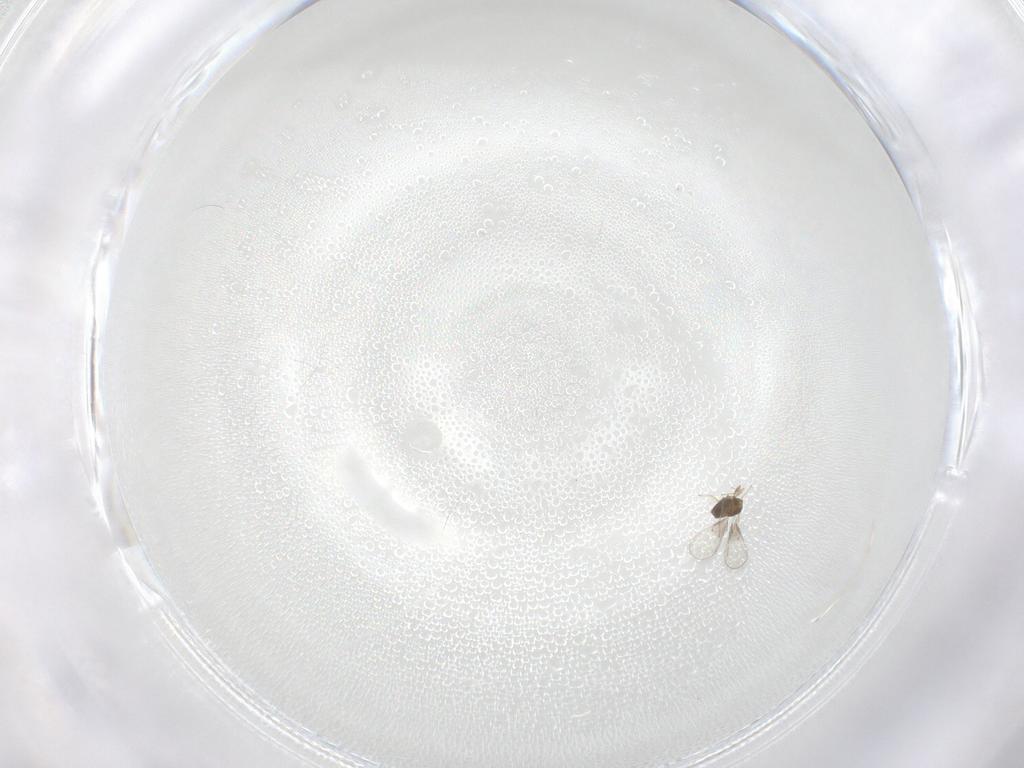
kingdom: Animalia
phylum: Arthropoda
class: Insecta
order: Hymenoptera
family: Trichogrammatidae
